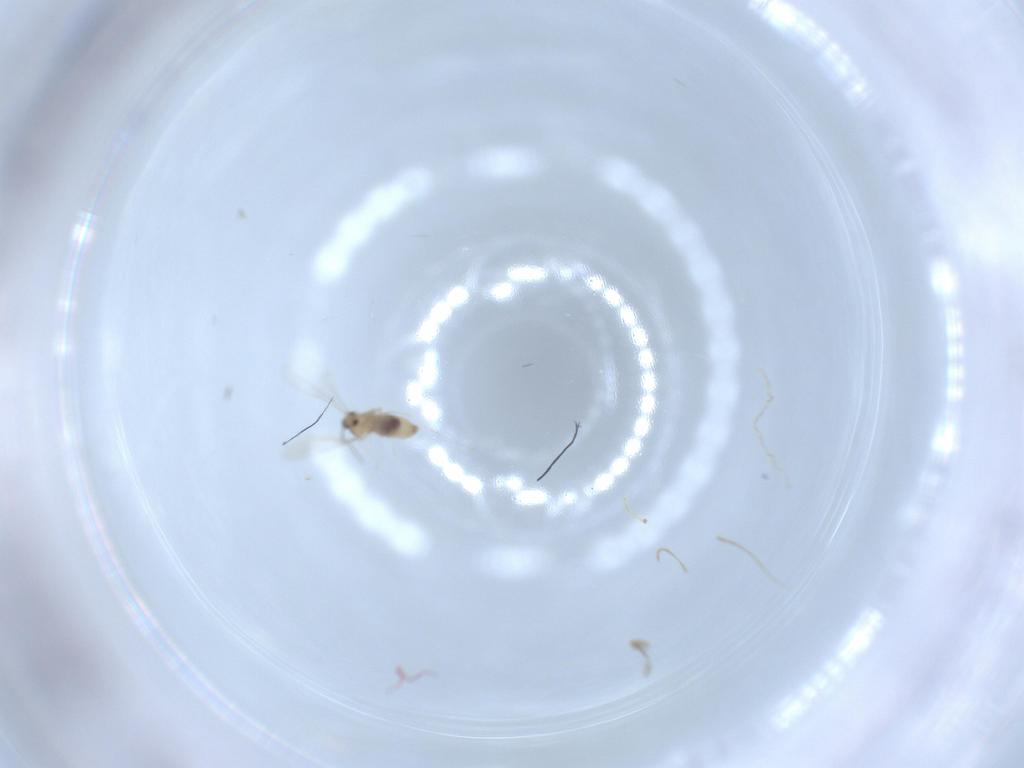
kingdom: Animalia
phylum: Arthropoda
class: Insecta
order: Diptera
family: Cecidomyiidae
